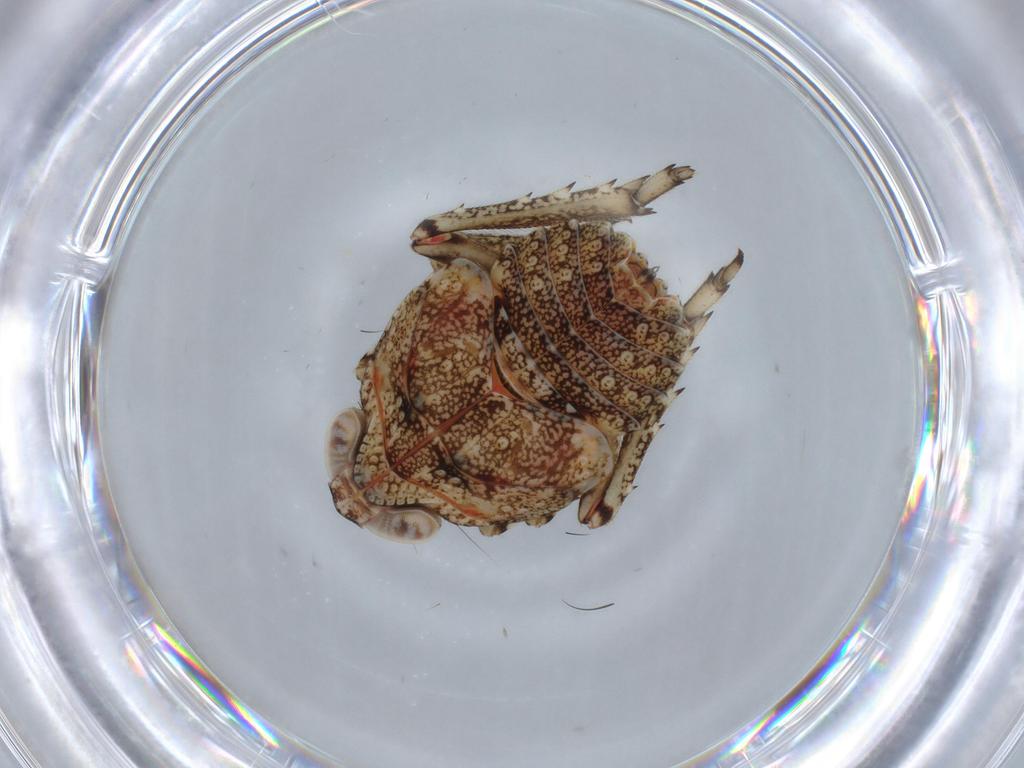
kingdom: Animalia
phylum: Arthropoda
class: Insecta
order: Hemiptera
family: Issidae
